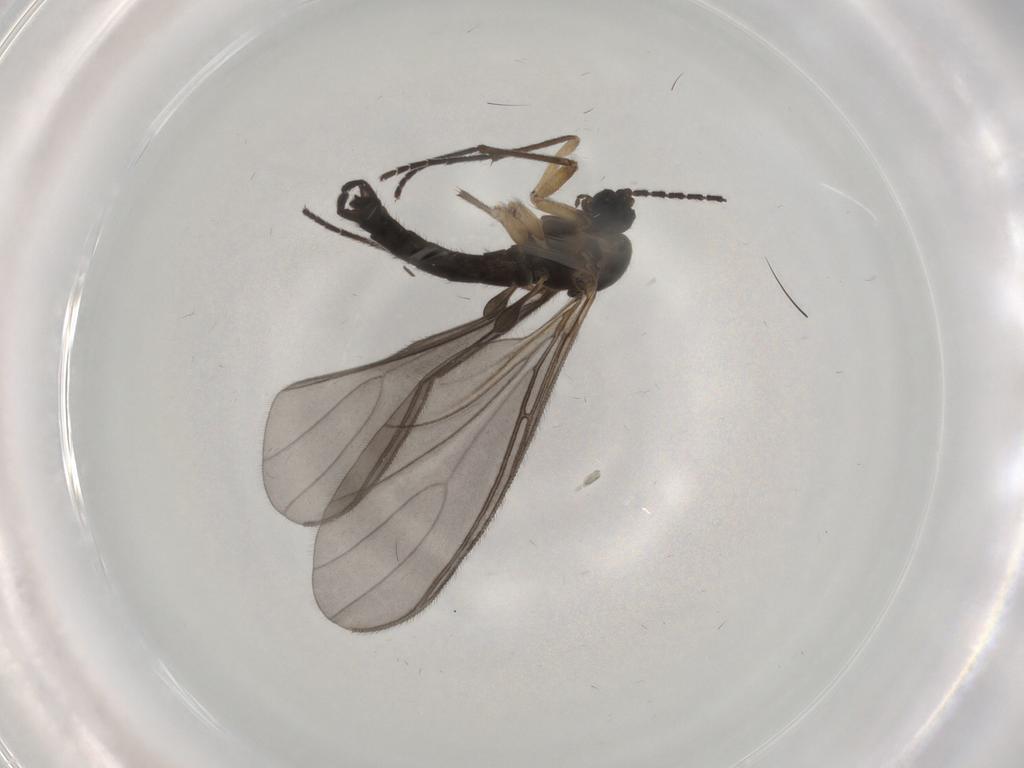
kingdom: Animalia
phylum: Arthropoda
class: Insecta
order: Diptera
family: Sciaridae
